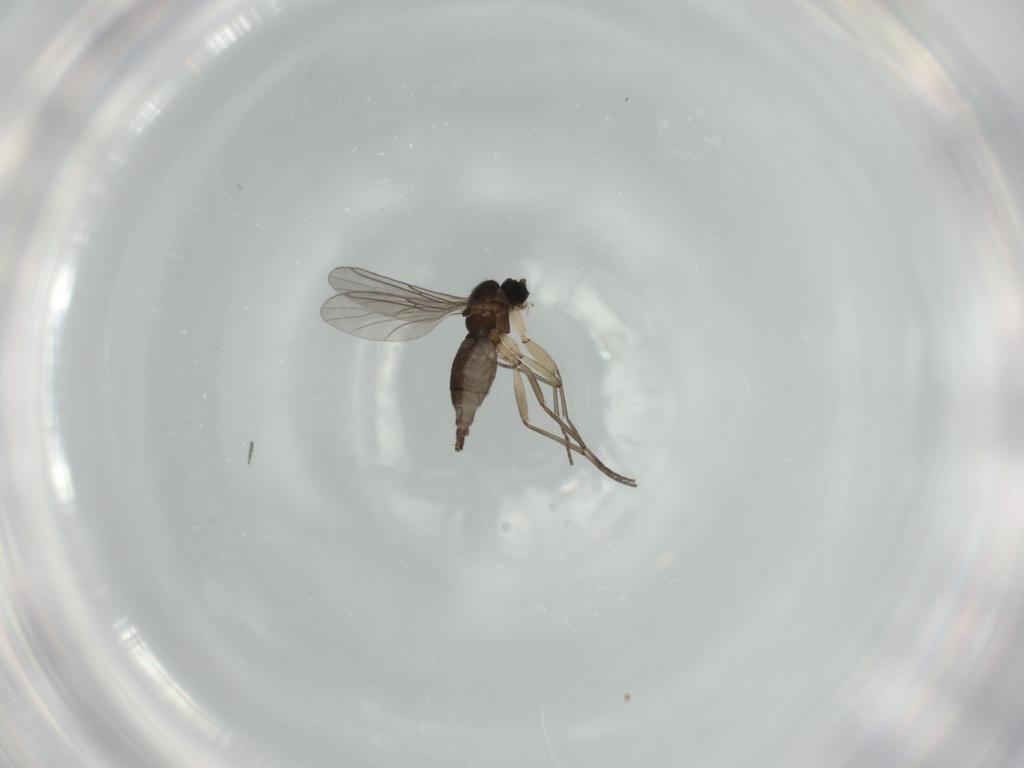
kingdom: Animalia
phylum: Arthropoda
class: Insecta
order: Diptera
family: Sciaridae
